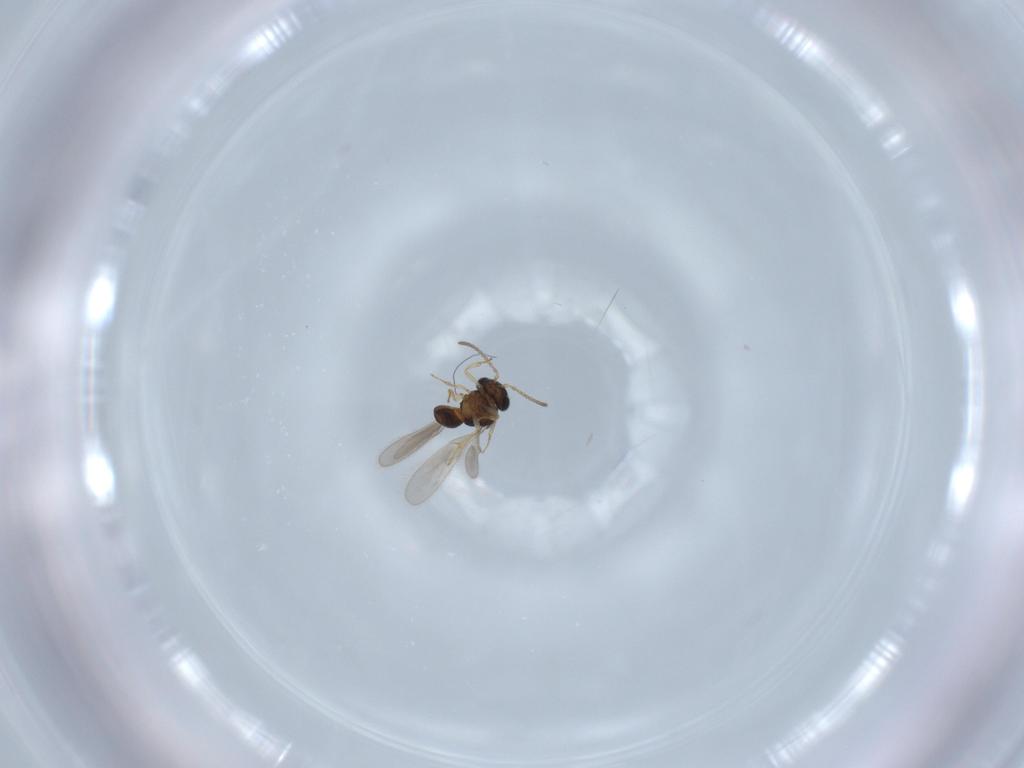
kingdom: Animalia
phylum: Arthropoda
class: Insecta
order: Hymenoptera
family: Scelionidae
